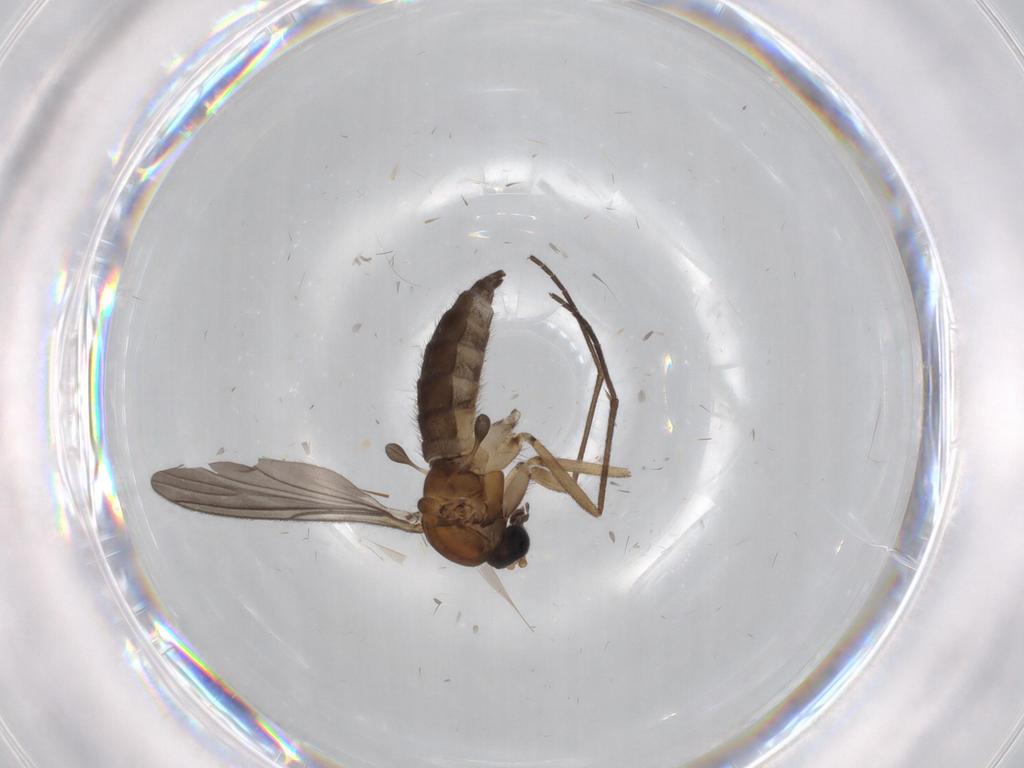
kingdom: Animalia
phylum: Arthropoda
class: Insecta
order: Diptera
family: Sciaridae
